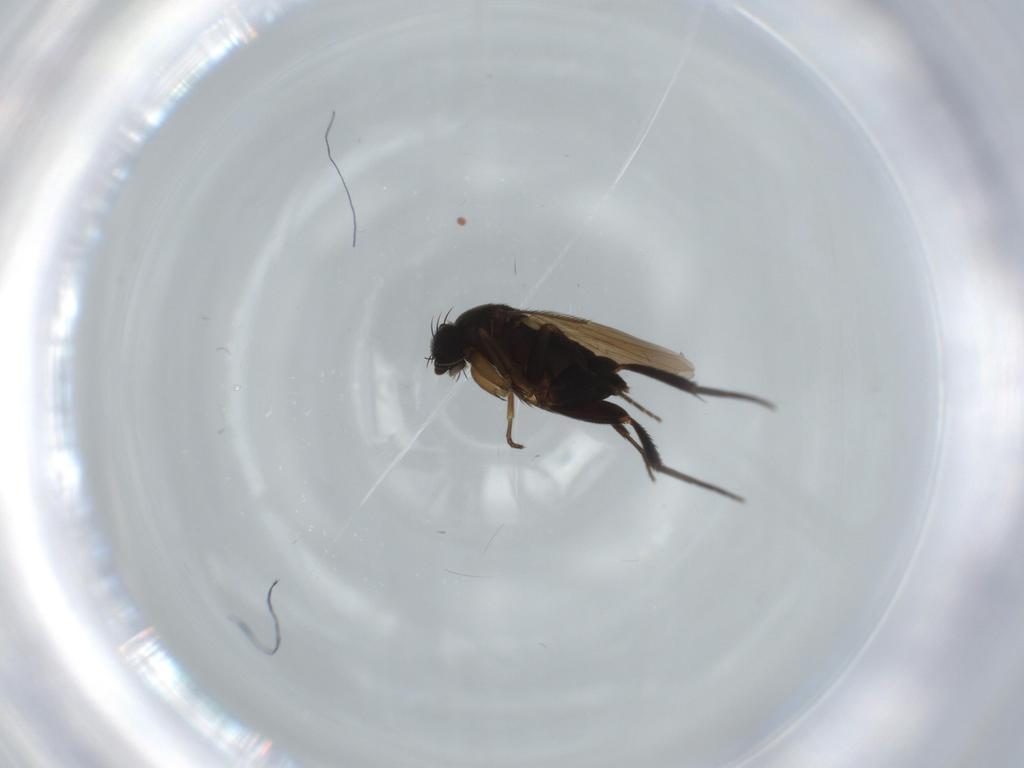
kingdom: Animalia
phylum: Arthropoda
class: Insecta
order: Diptera
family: Phoridae
